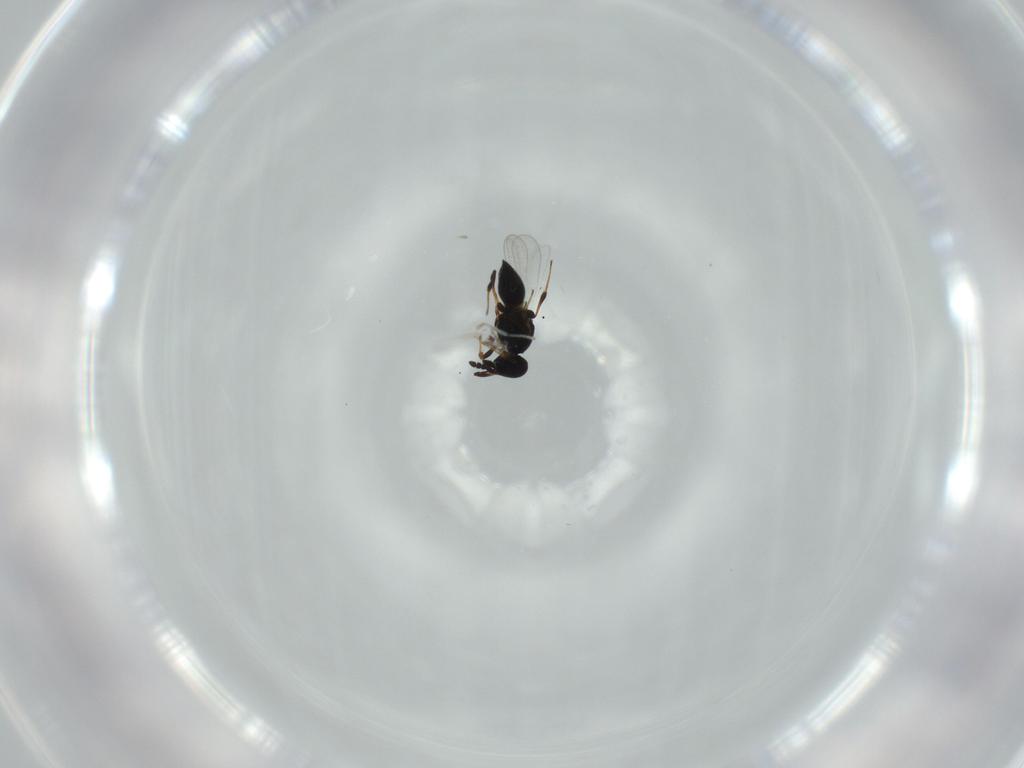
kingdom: Animalia
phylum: Arthropoda
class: Insecta
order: Hymenoptera
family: Platygastridae
